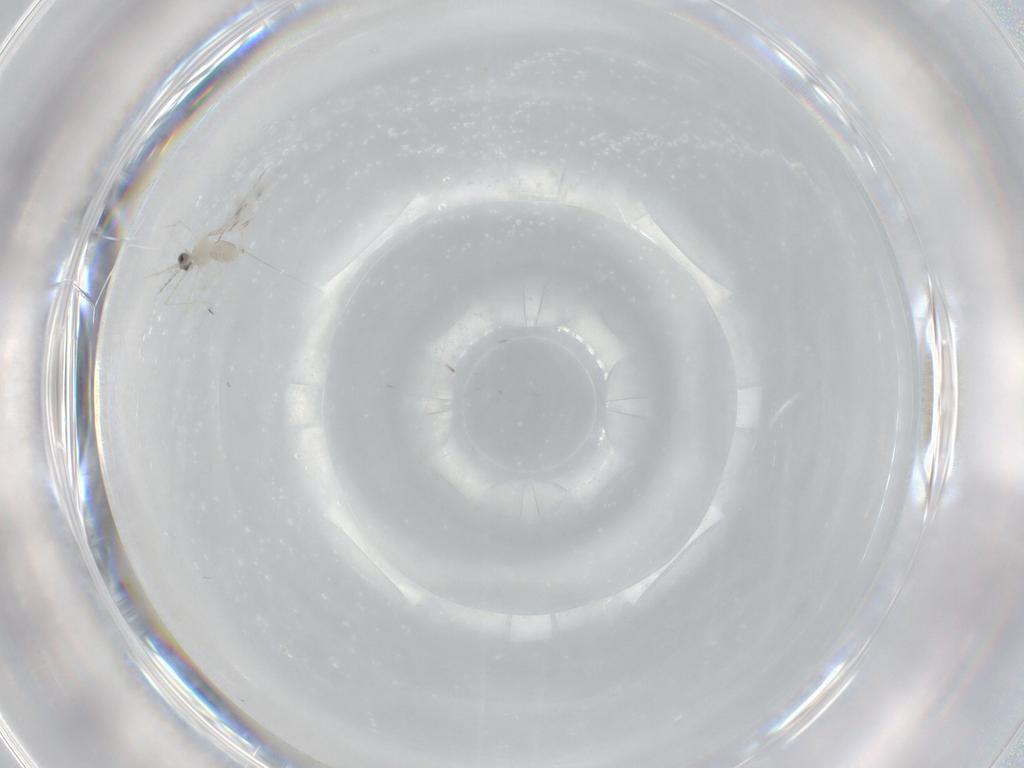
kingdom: Animalia
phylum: Arthropoda
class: Insecta
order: Diptera
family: Cecidomyiidae
